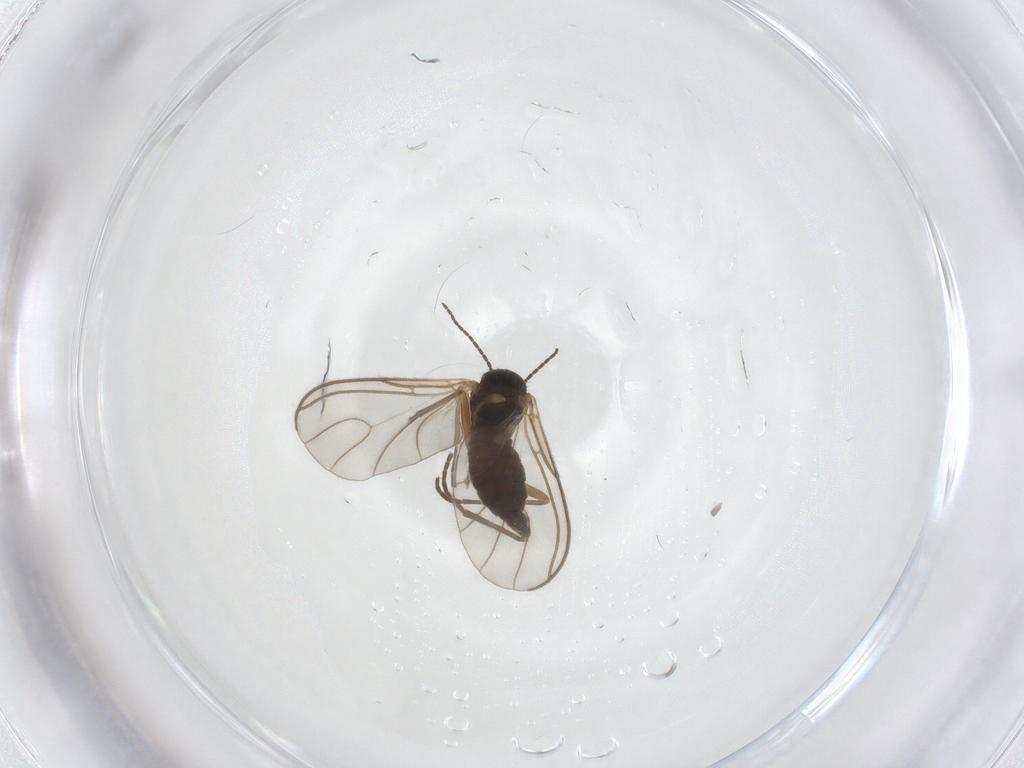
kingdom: Animalia
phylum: Arthropoda
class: Insecta
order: Diptera
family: Sciaridae
